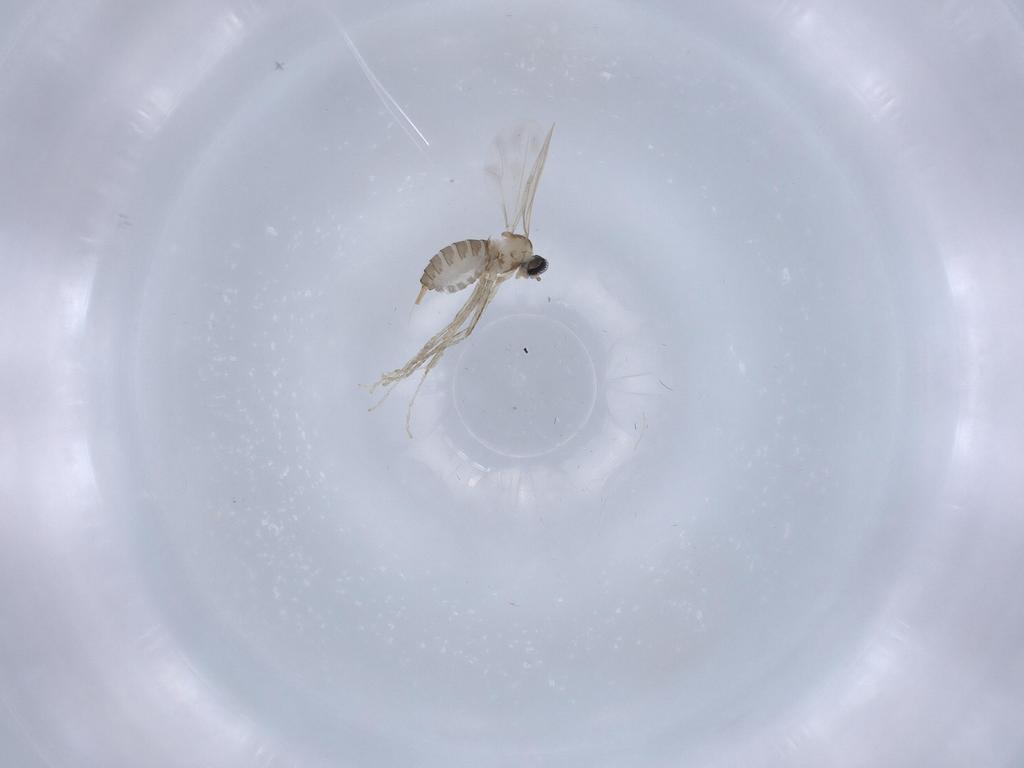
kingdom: Animalia
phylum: Arthropoda
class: Insecta
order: Diptera
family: Cecidomyiidae
